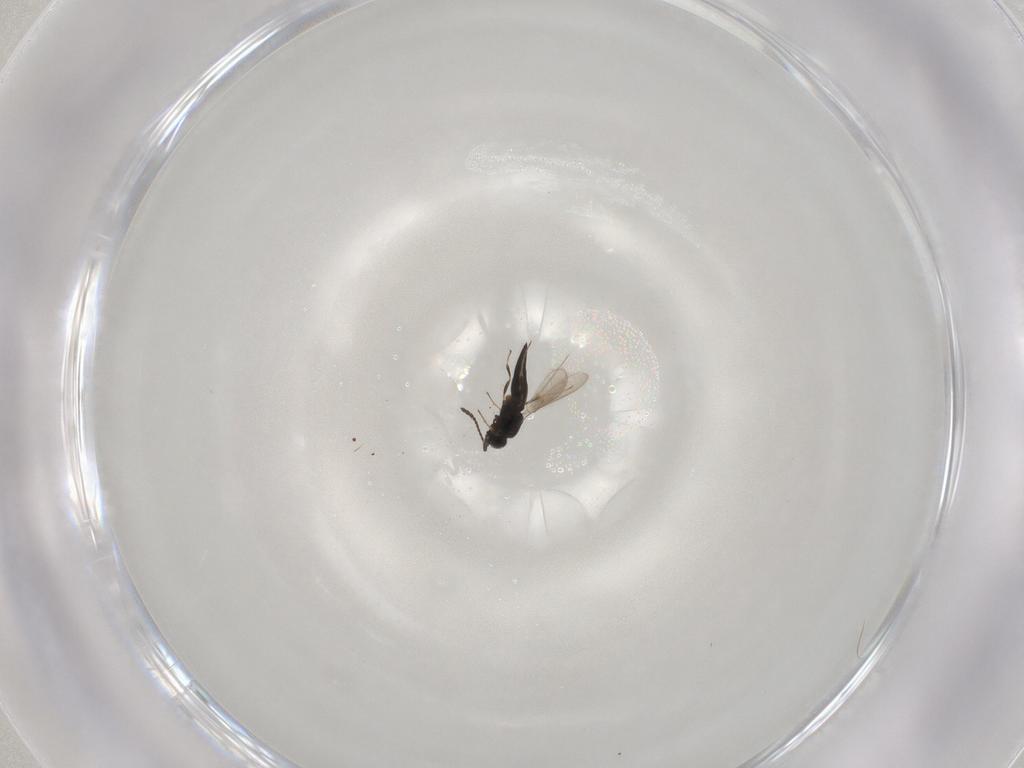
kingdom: Animalia
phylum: Arthropoda
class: Insecta
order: Hymenoptera
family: Scelionidae
